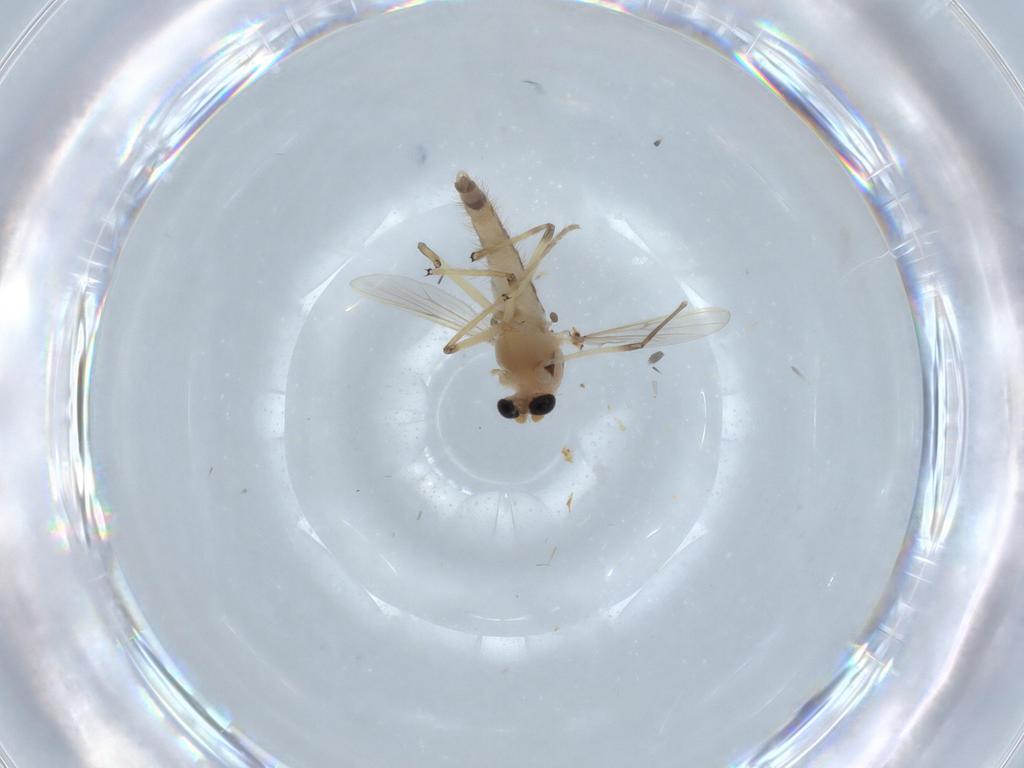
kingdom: Animalia
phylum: Arthropoda
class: Insecta
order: Diptera
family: Chironomidae
